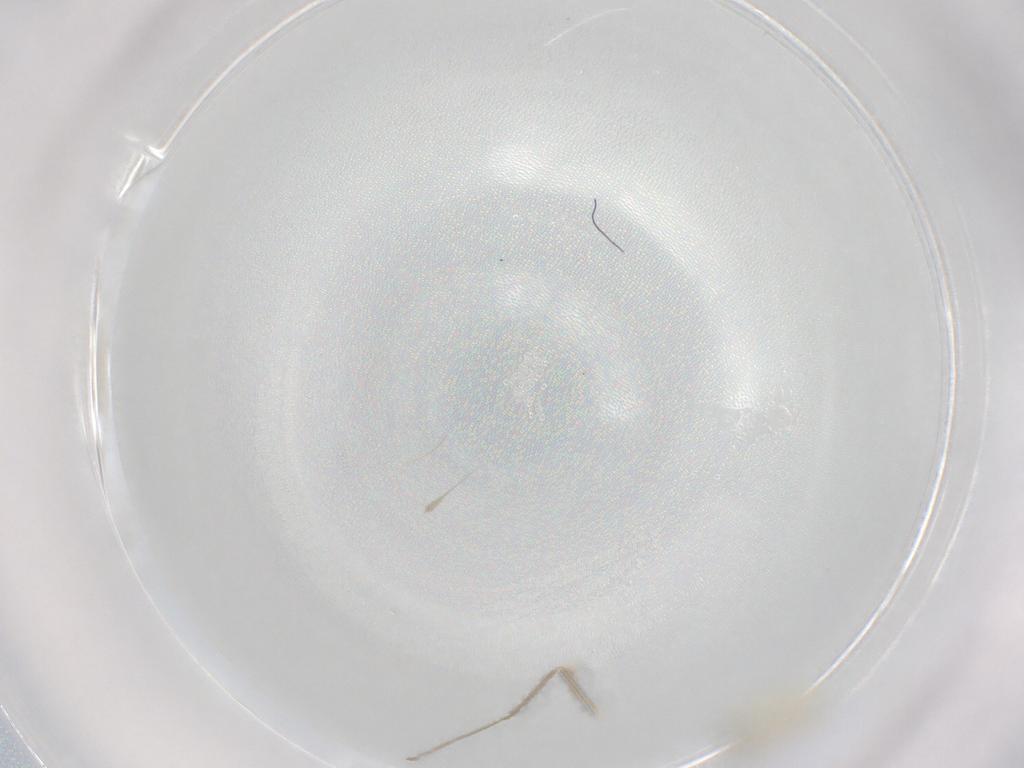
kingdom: Animalia
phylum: Arthropoda
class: Insecta
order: Diptera
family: Cecidomyiidae
